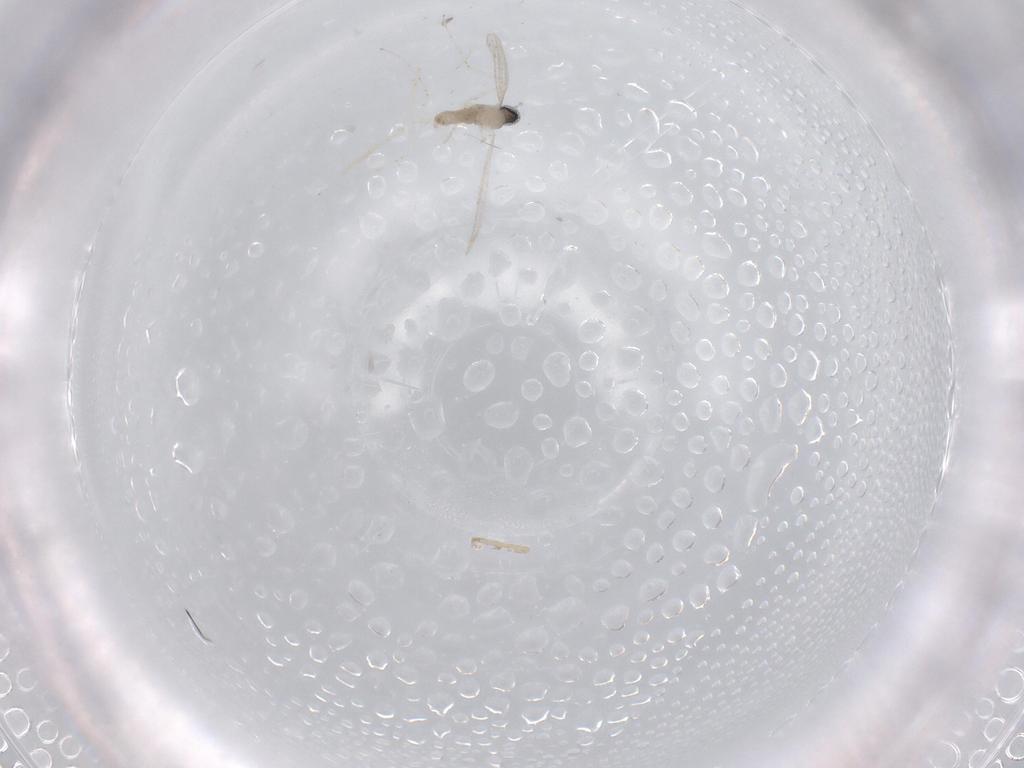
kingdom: Animalia
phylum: Arthropoda
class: Insecta
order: Diptera
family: Cecidomyiidae
